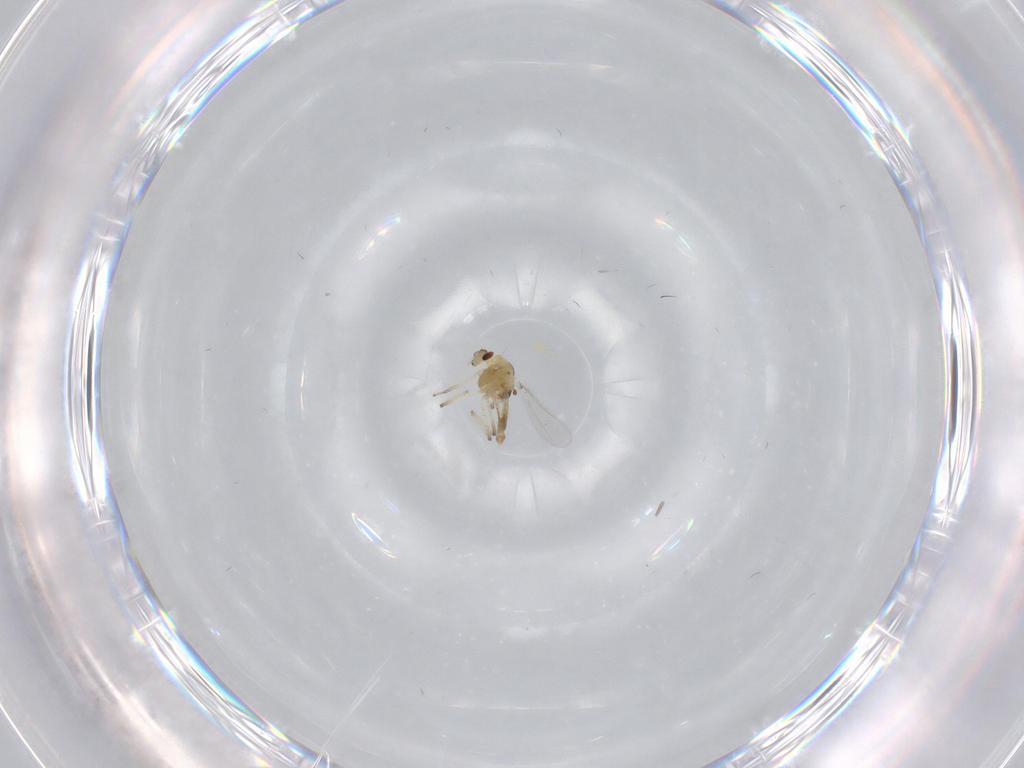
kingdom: Animalia
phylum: Arthropoda
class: Insecta
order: Diptera
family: Chironomidae
